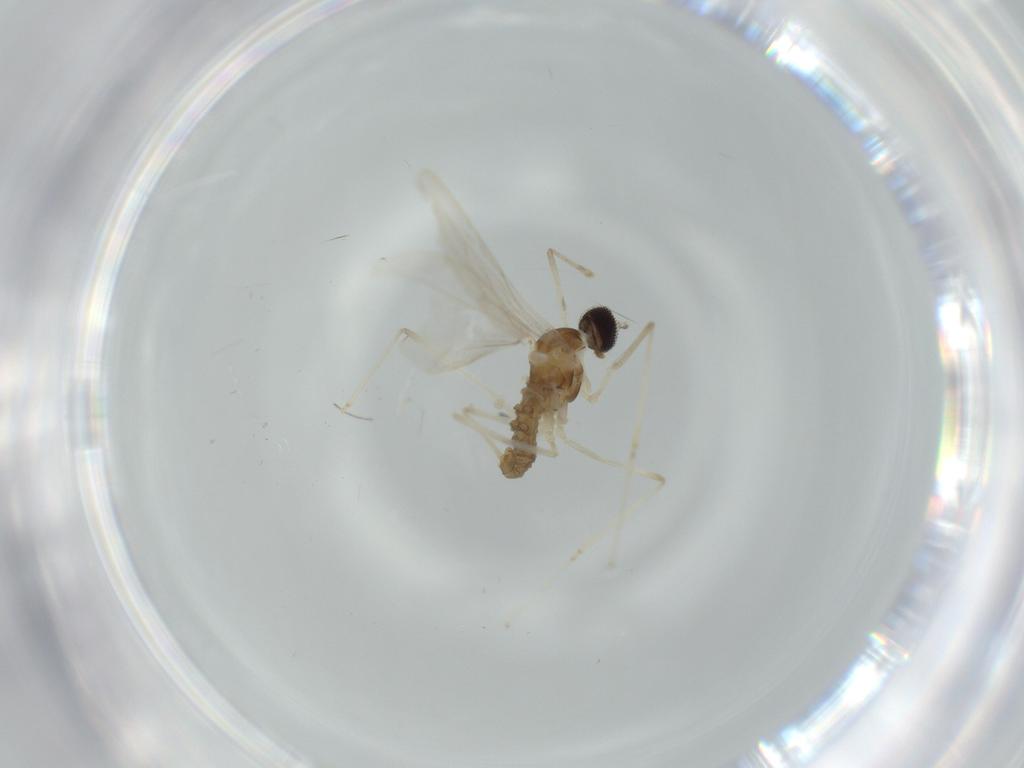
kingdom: Animalia
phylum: Arthropoda
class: Insecta
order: Diptera
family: Cecidomyiidae
